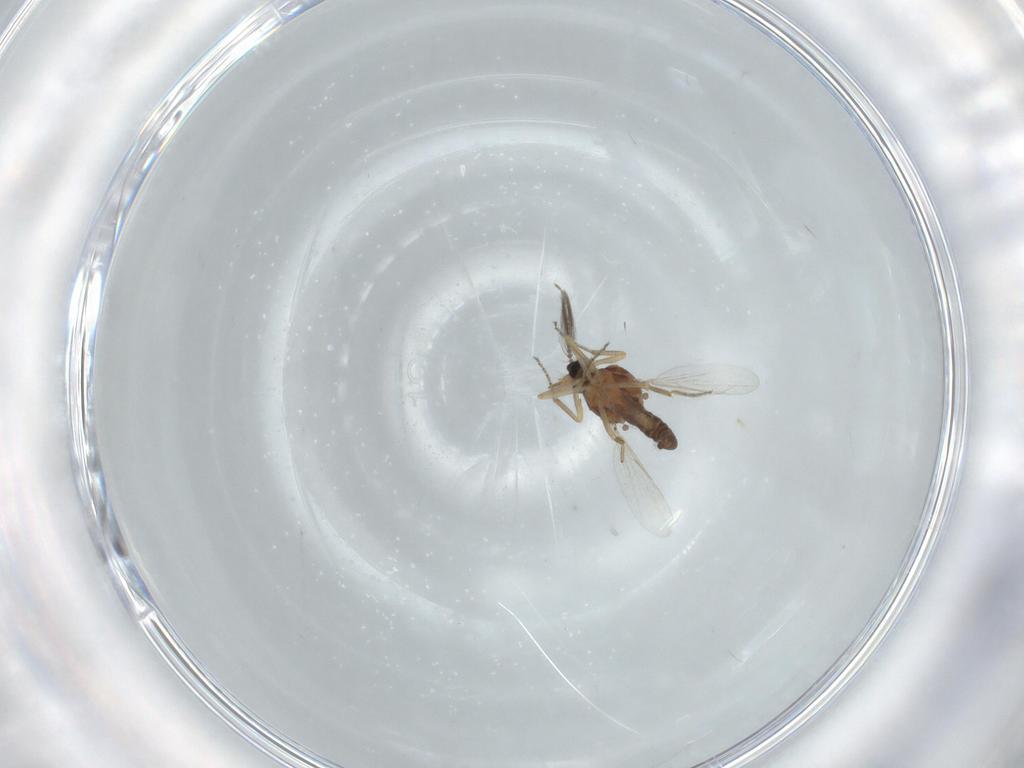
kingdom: Animalia
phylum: Arthropoda
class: Insecta
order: Diptera
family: Ceratopogonidae
